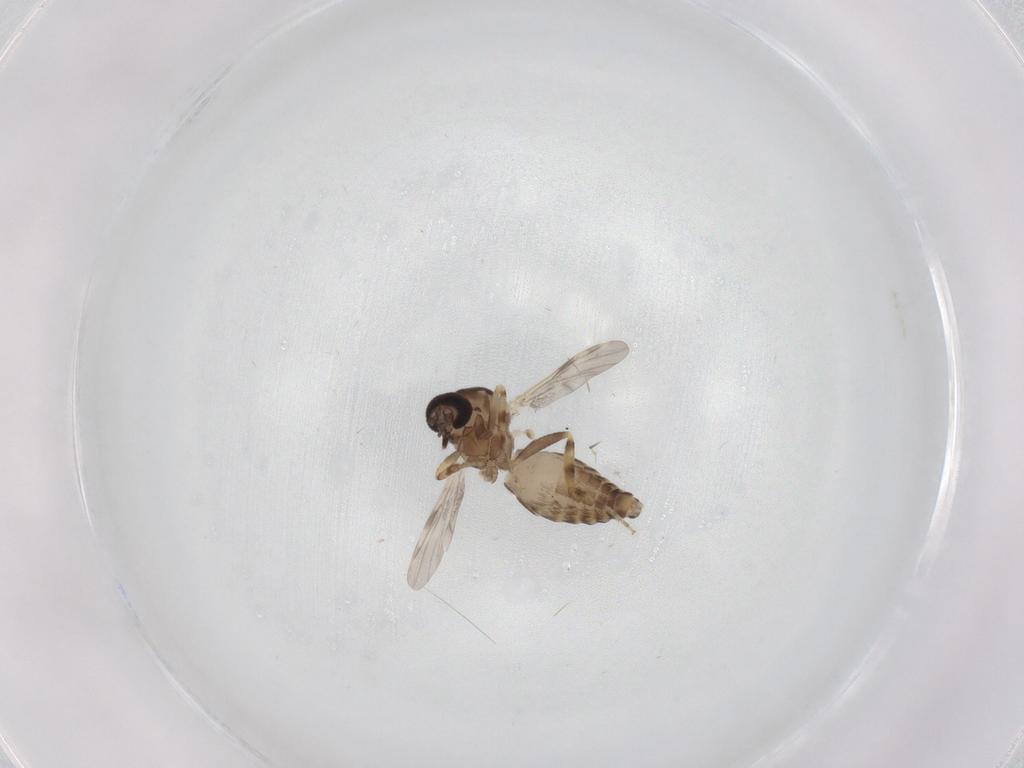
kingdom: Animalia
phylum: Arthropoda
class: Insecta
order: Diptera
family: Ceratopogonidae
